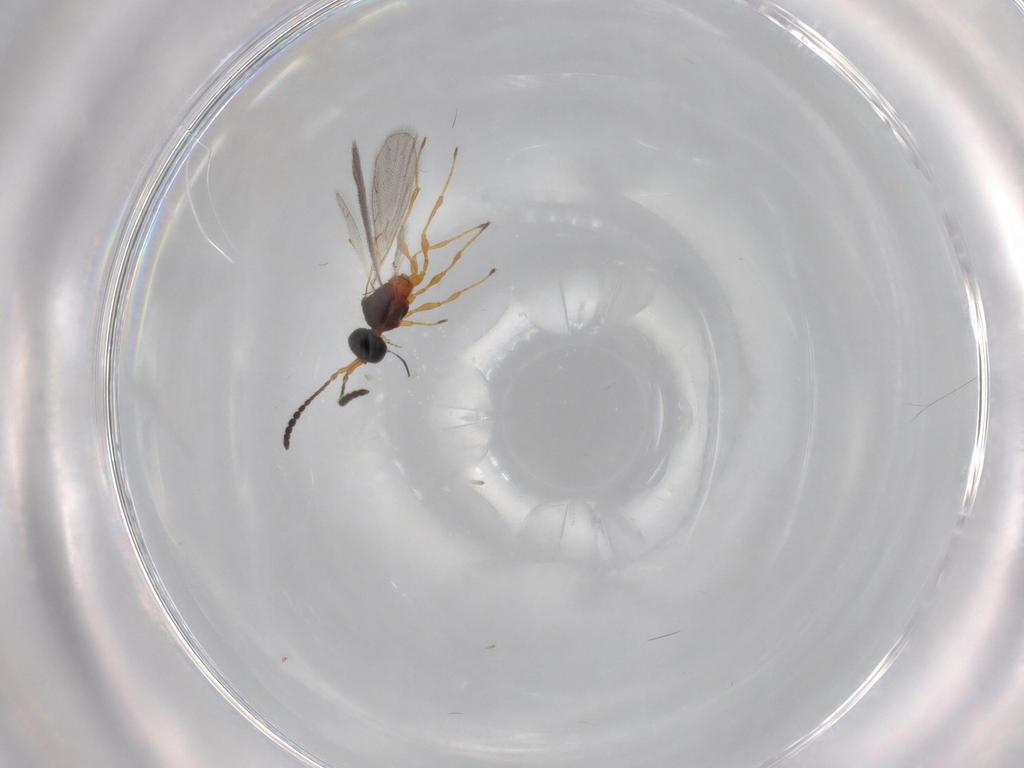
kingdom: Animalia
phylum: Arthropoda
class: Insecta
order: Hymenoptera
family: Diapriidae
